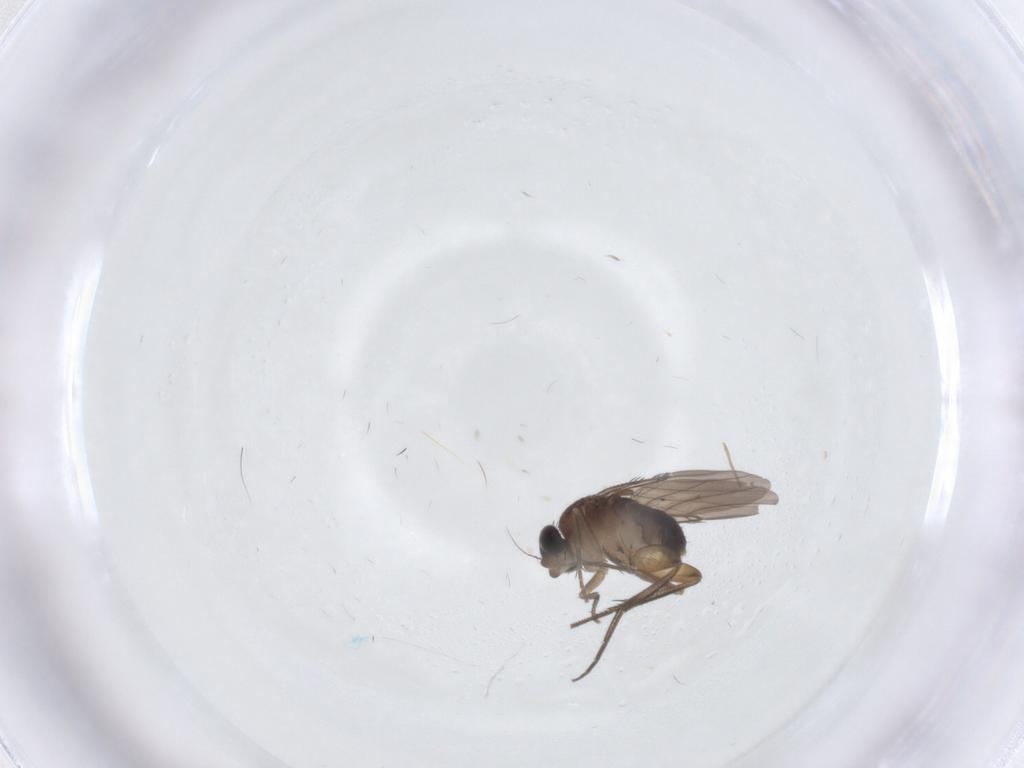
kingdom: Animalia
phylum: Arthropoda
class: Insecta
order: Diptera
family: Phoridae
